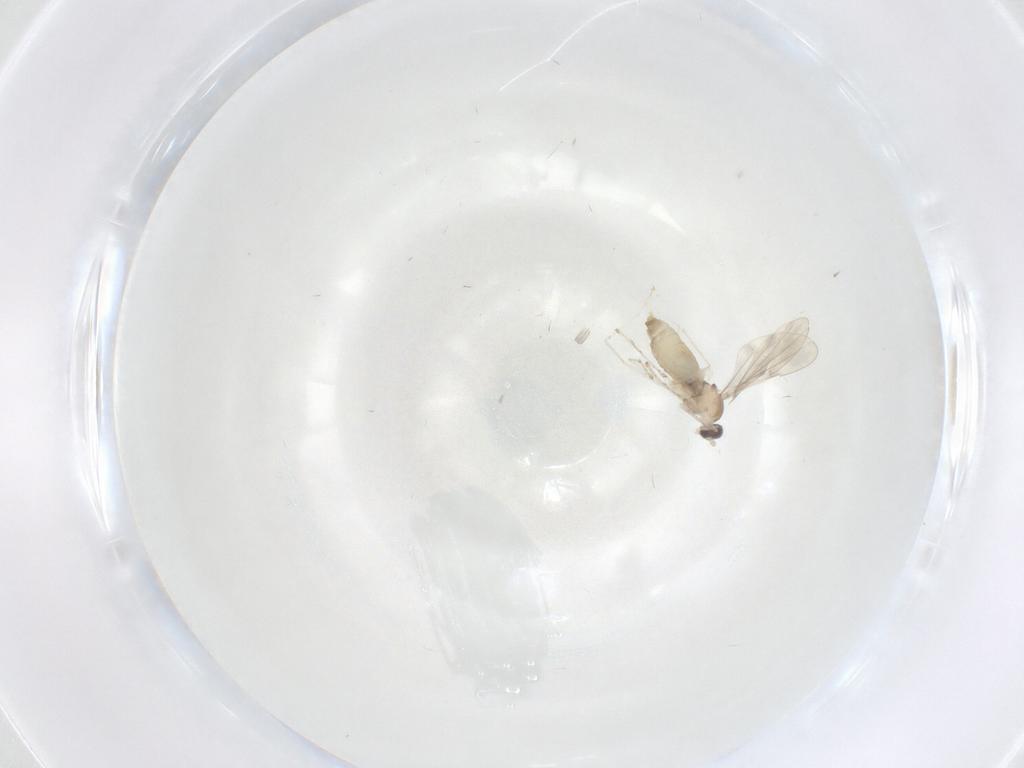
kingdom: Animalia
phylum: Arthropoda
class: Insecta
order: Diptera
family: Cecidomyiidae
